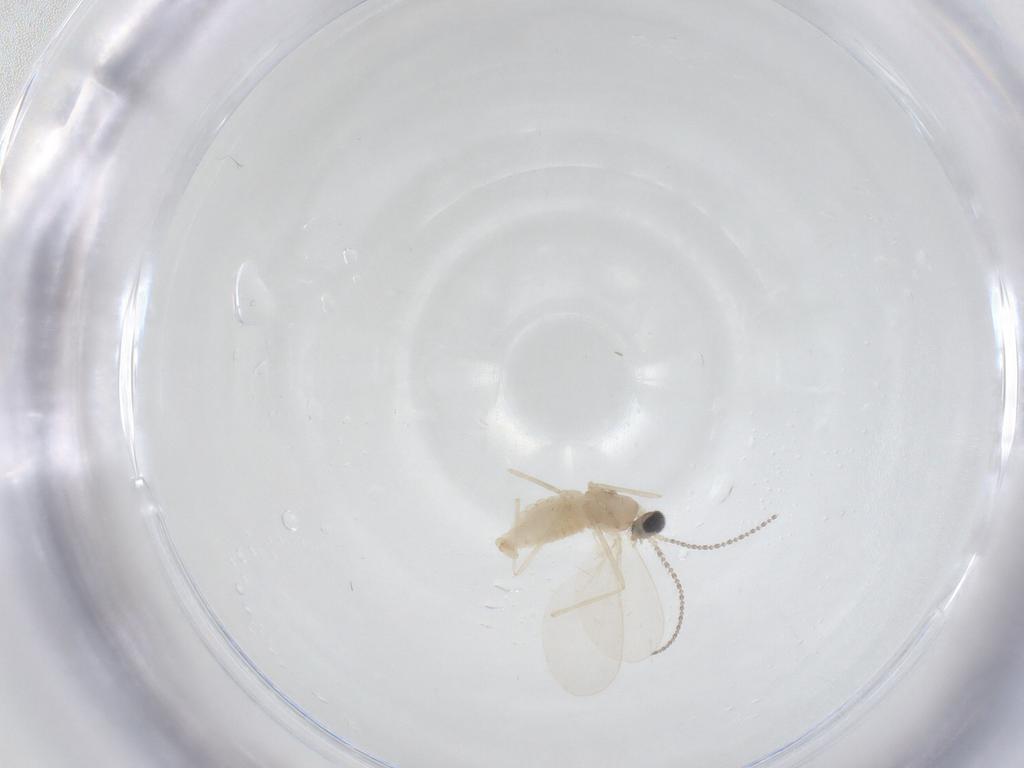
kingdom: Animalia
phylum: Arthropoda
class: Insecta
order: Diptera
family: Cecidomyiidae
